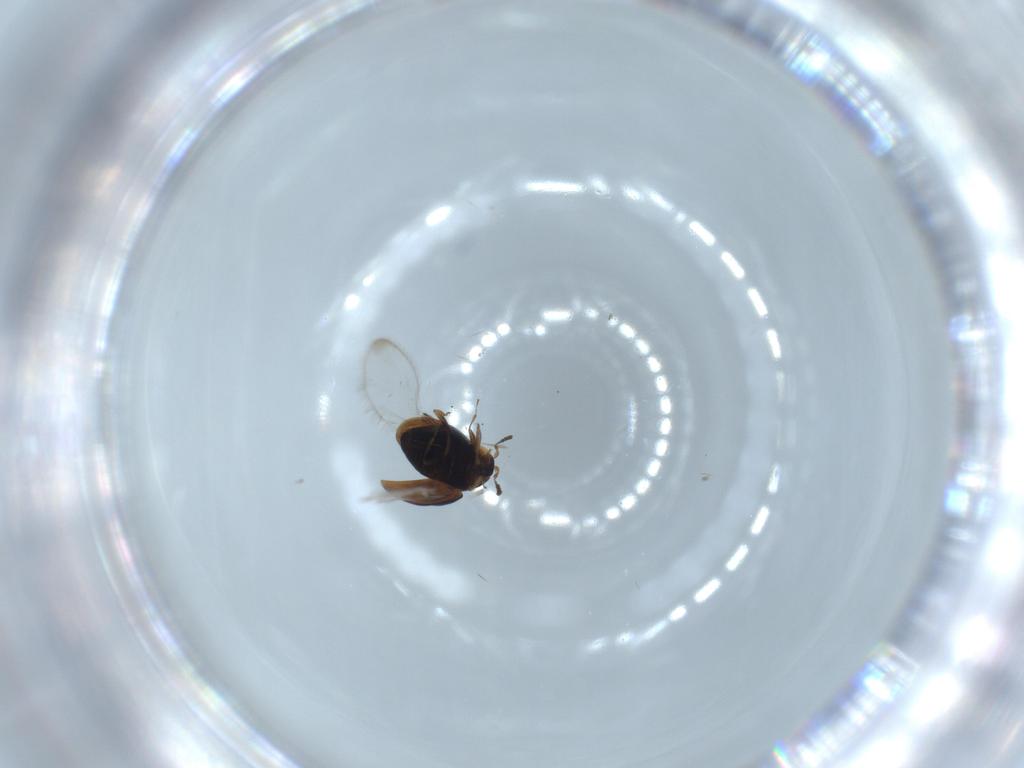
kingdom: Animalia
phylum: Arthropoda
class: Insecta
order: Coleoptera
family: Corylophidae
